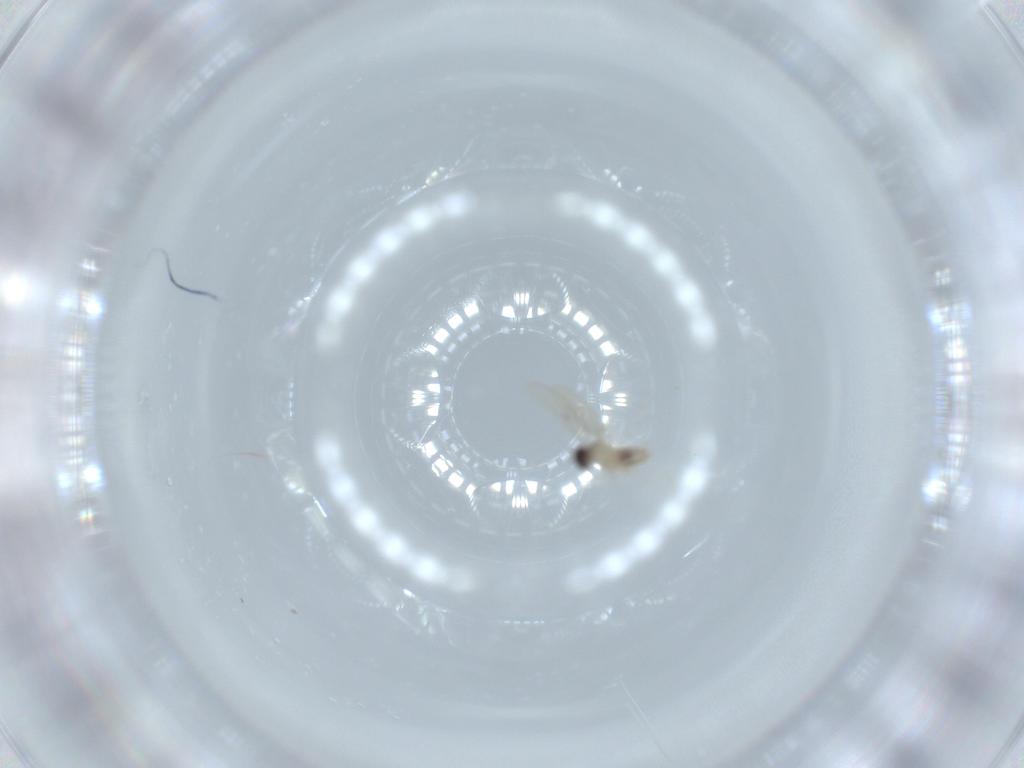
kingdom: Animalia
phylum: Arthropoda
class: Insecta
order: Diptera
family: Cecidomyiidae
